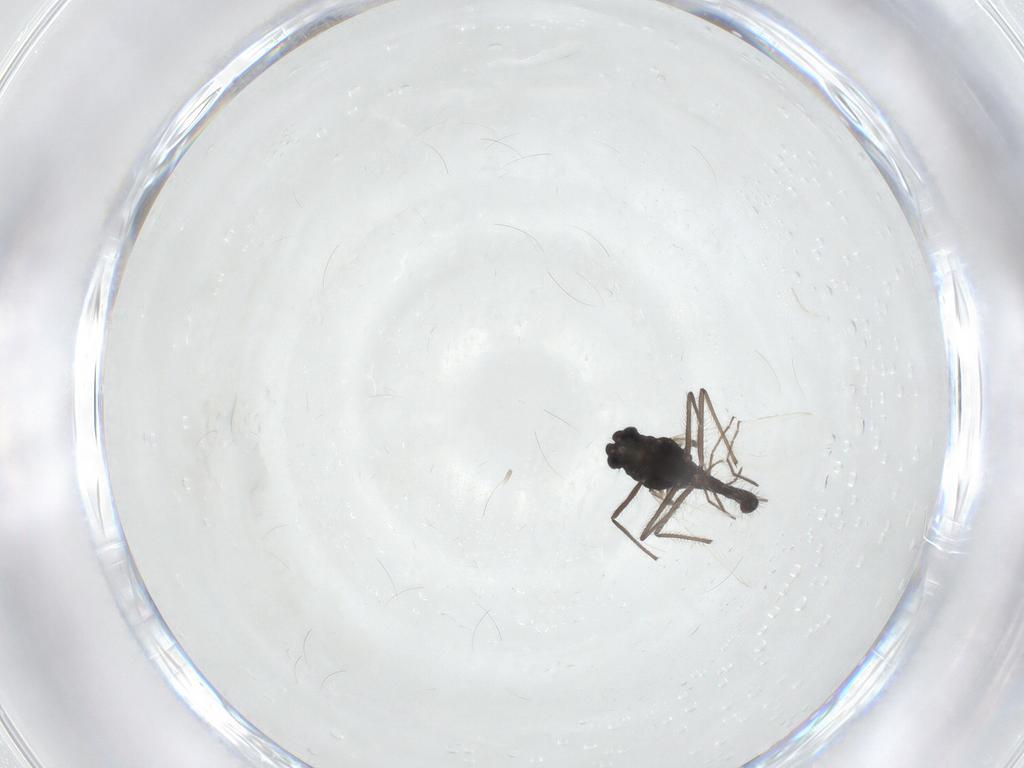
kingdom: Animalia
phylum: Arthropoda
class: Insecta
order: Diptera
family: Chironomidae
